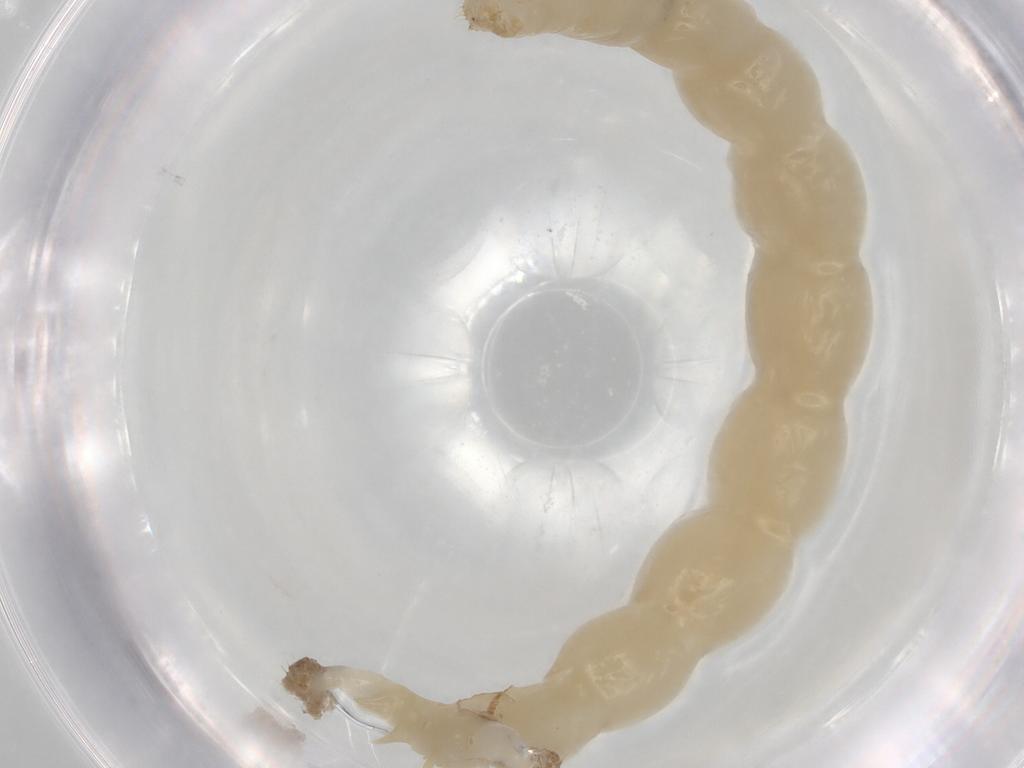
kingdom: Animalia
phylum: Arthropoda
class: Insecta
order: Diptera
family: Chironomidae
